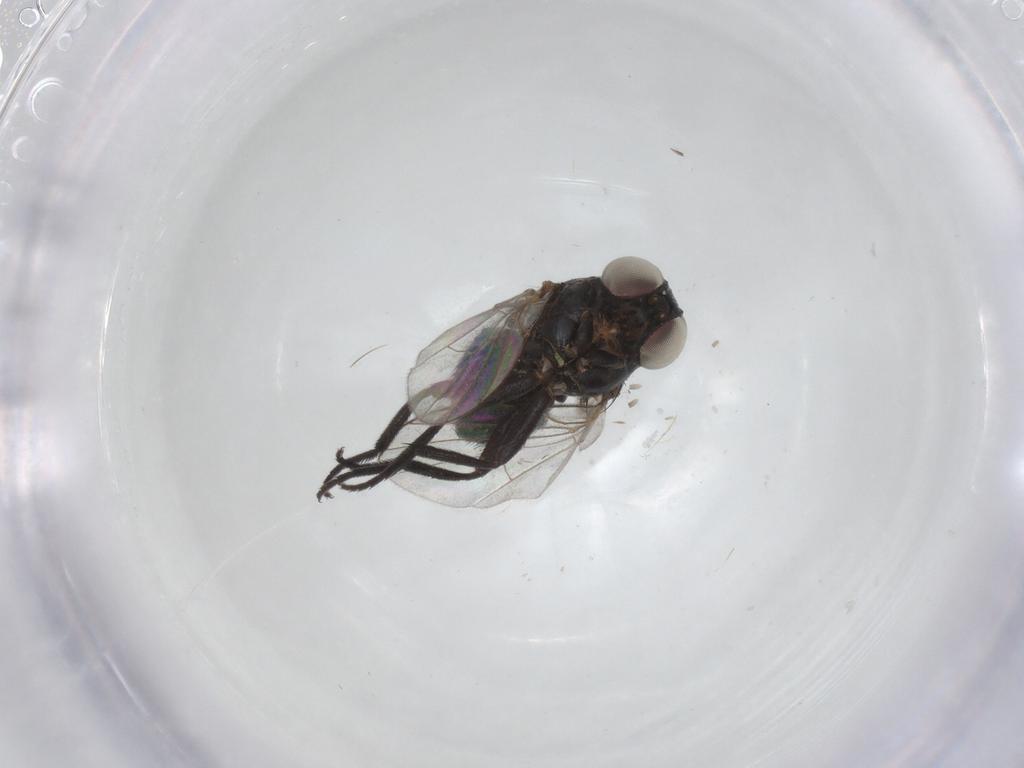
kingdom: Animalia
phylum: Arthropoda
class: Insecta
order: Diptera
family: Agromyzidae
